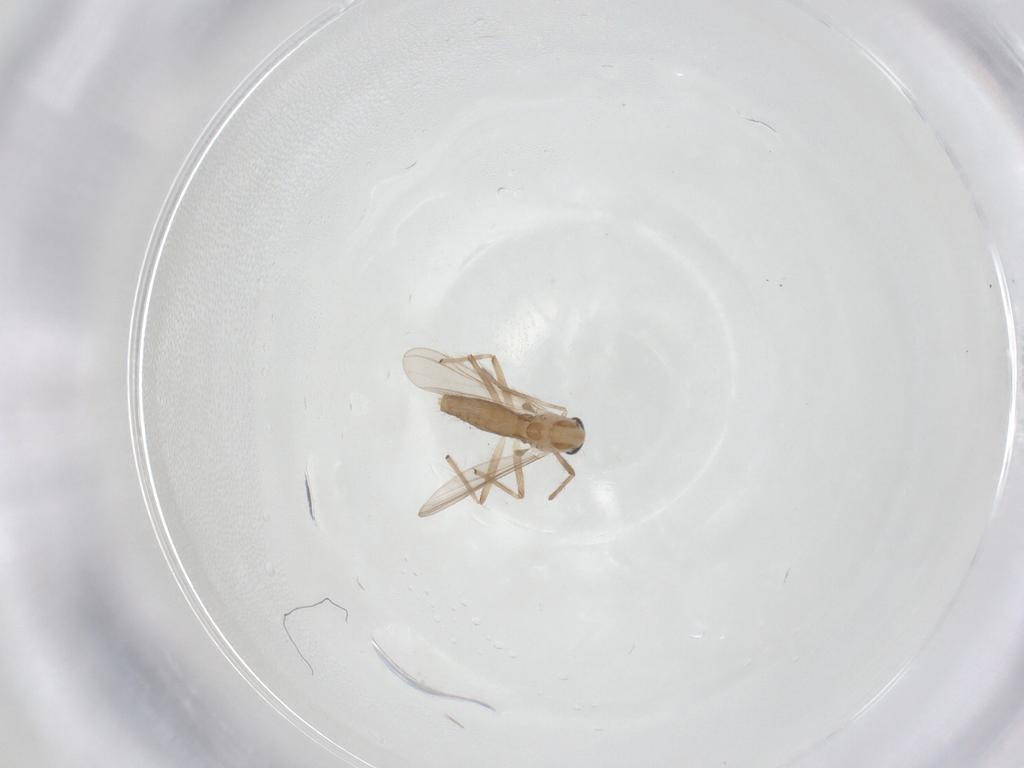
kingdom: Animalia
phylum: Arthropoda
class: Insecta
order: Diptera
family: Chironomidae
